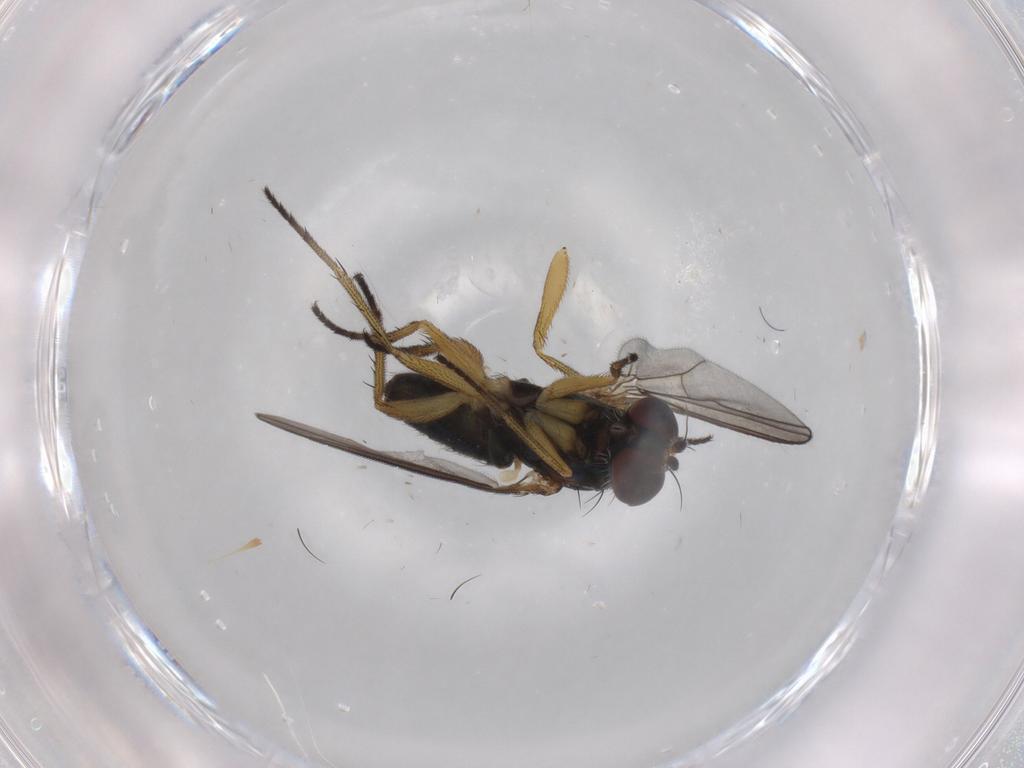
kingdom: Animalia
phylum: Arthropoda
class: Insecta
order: Diptera
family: Dolichopodidae
